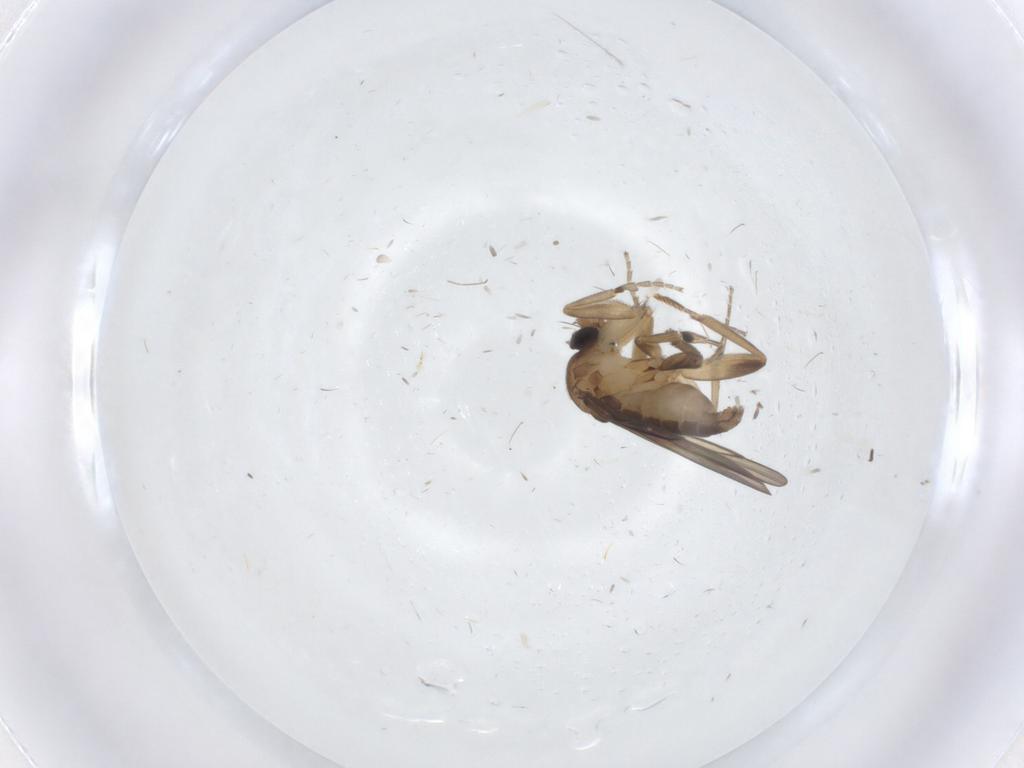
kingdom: Animalia
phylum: Arthropoda
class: Insecta
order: Diptera
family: Phoridae
